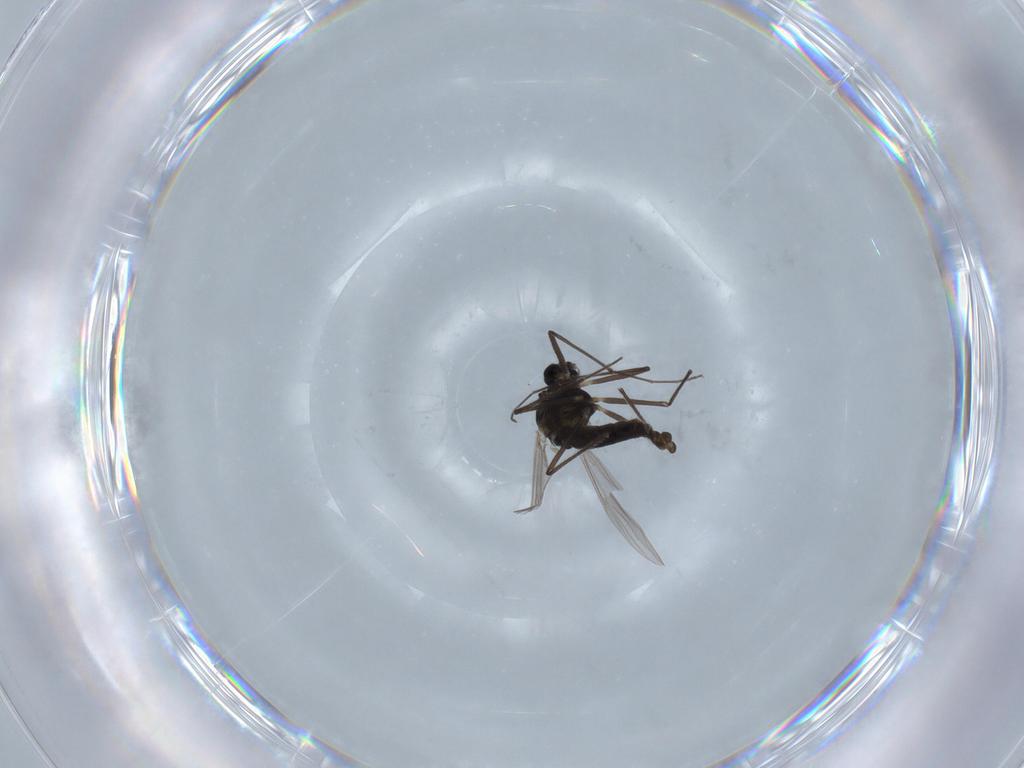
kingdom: Animalia
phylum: Arthropoda
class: Insecta
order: Diptera
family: Chironomidae
